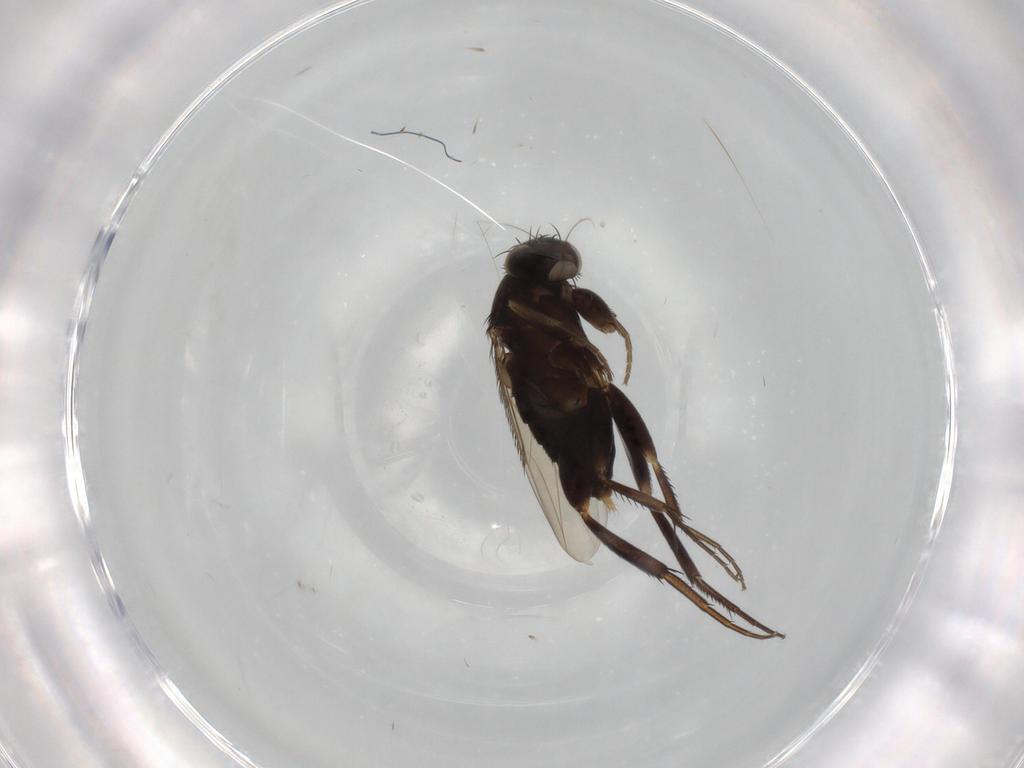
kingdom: Animalia
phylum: Arthropoda
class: Insecta
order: Diptera
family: Phoridae
